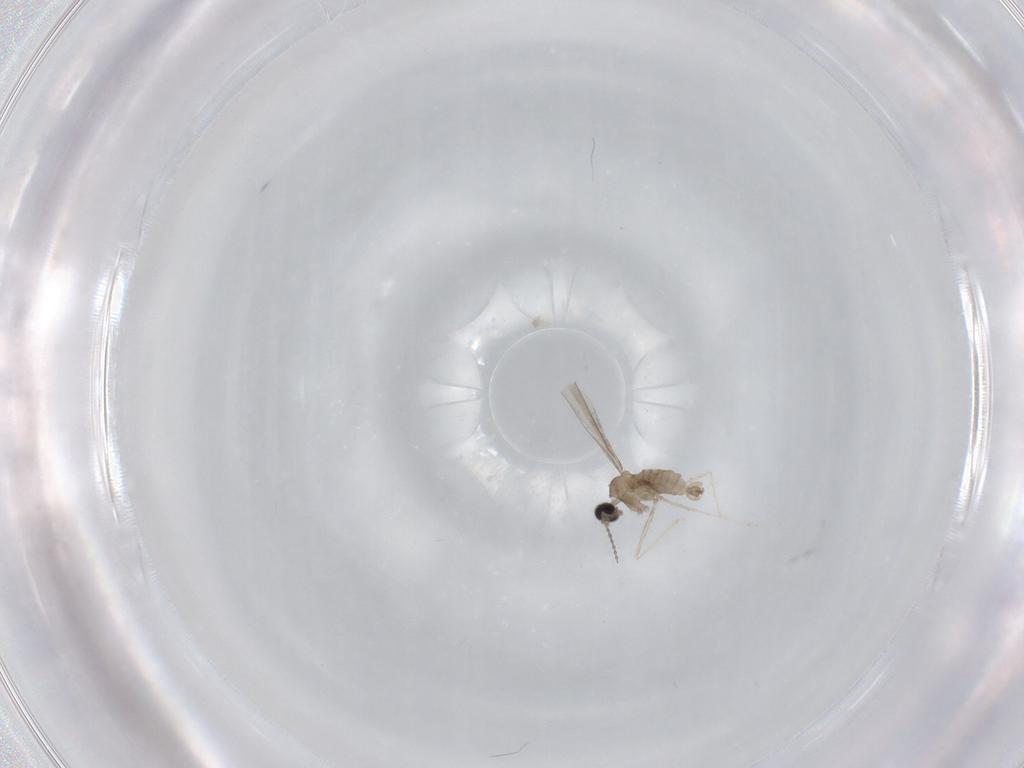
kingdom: Animalia
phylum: Arthropoda
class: Insecta
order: Diptera
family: Cecidomyiidae
